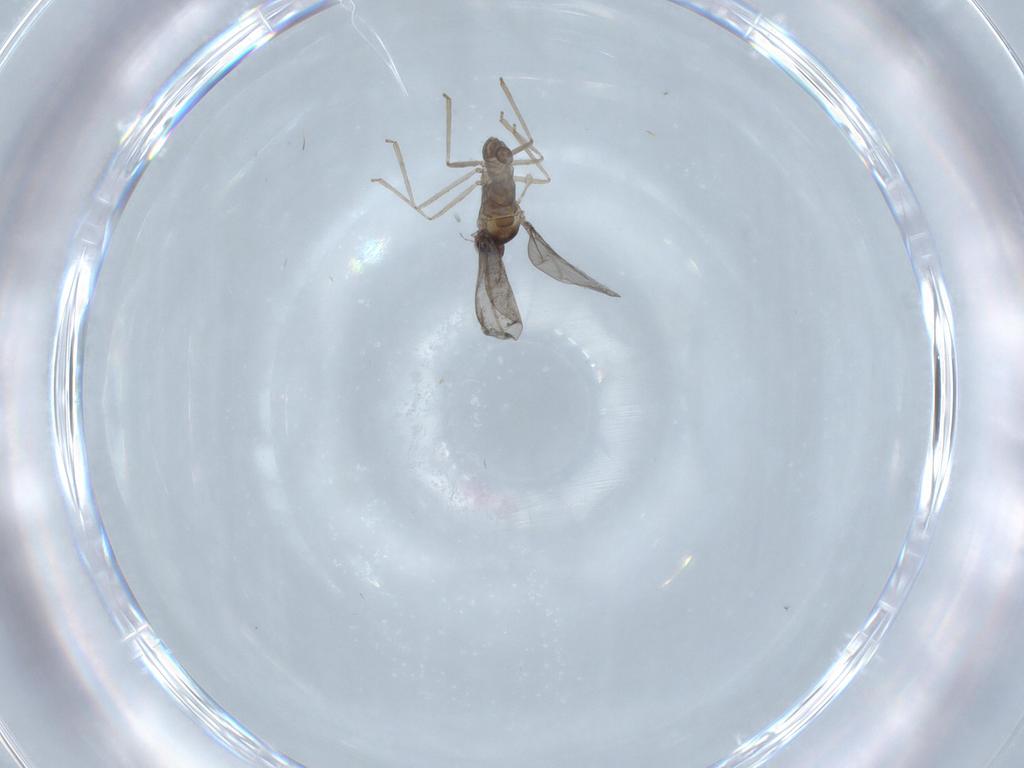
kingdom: Animalia
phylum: Arthropoda
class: Insecta
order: Diptera
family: Cecidomyiidae
